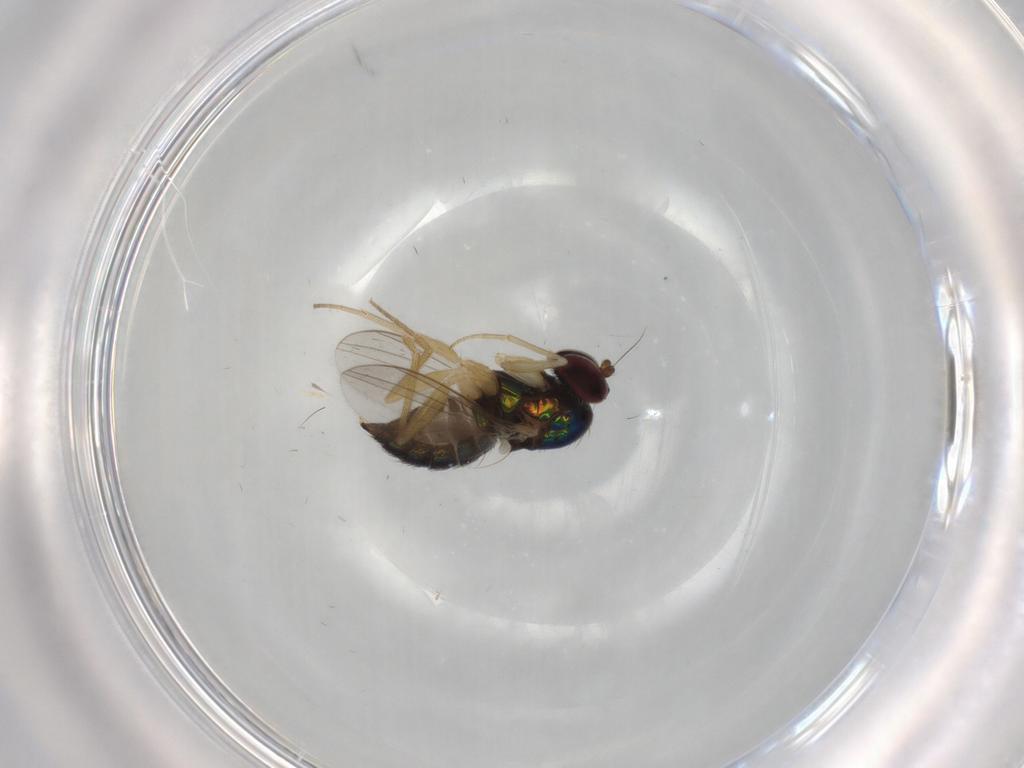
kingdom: Animalia
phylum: Arthropoda
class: Insecta
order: Diptera
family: Dolichopodidae
